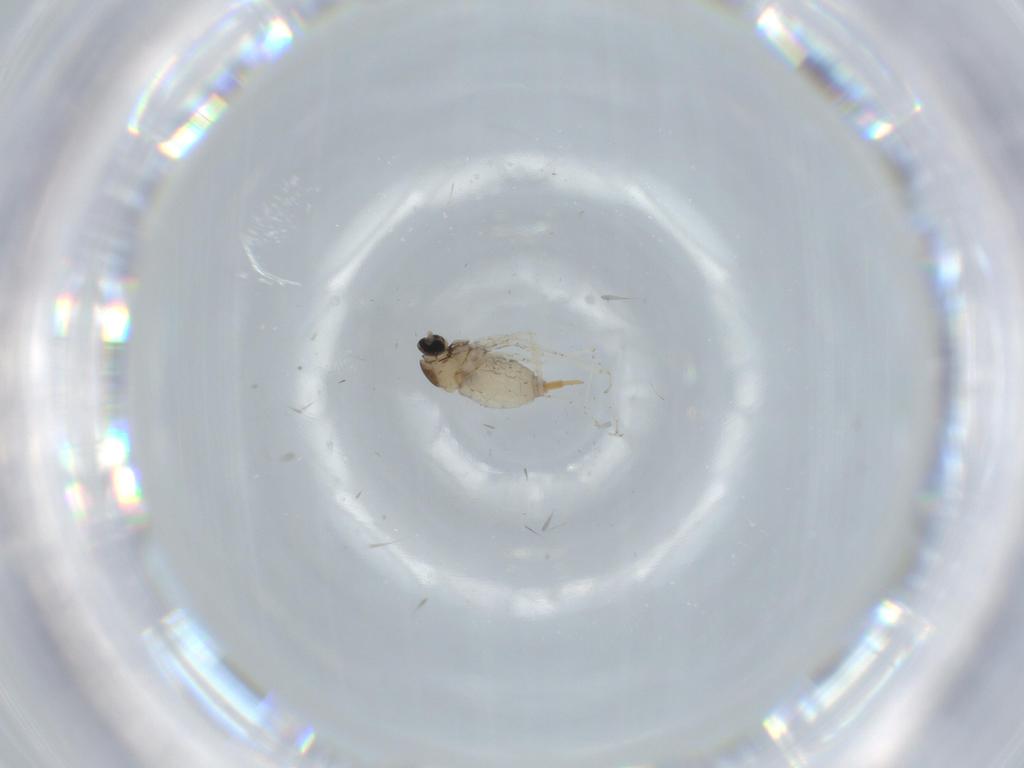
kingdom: Animalia
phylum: Arthropoda
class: Insecta
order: Diptera
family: Cecidomyiidae
